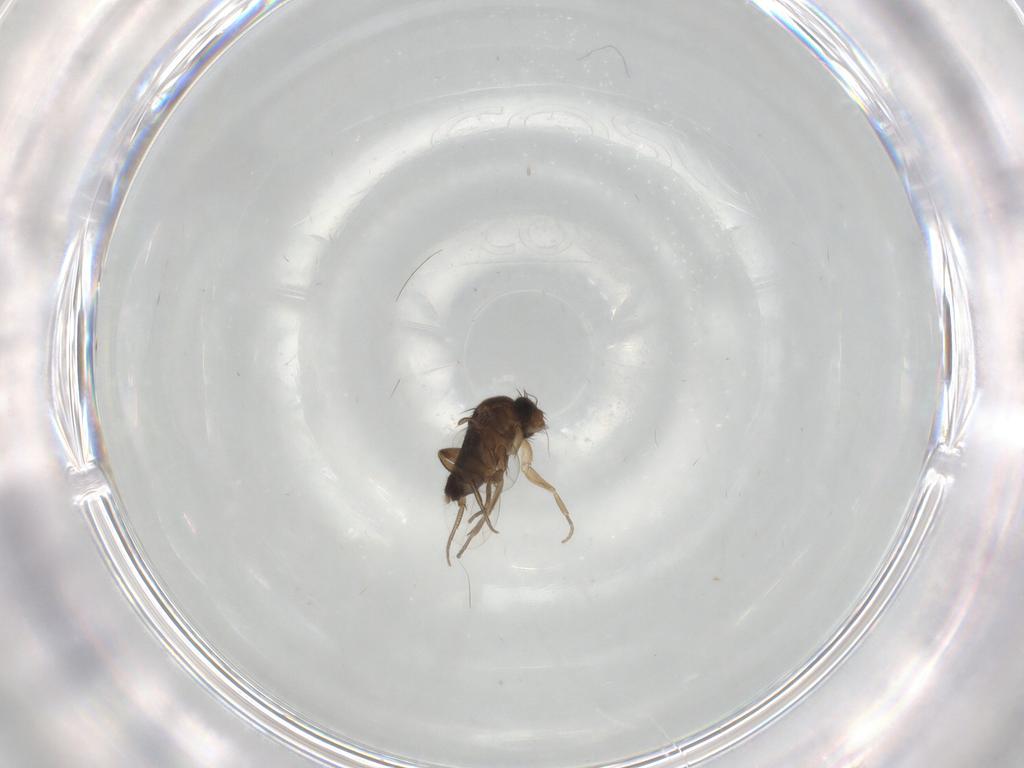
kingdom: Animalia
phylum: Arthropoda
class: Insecta
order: Diptera
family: Phoridae
